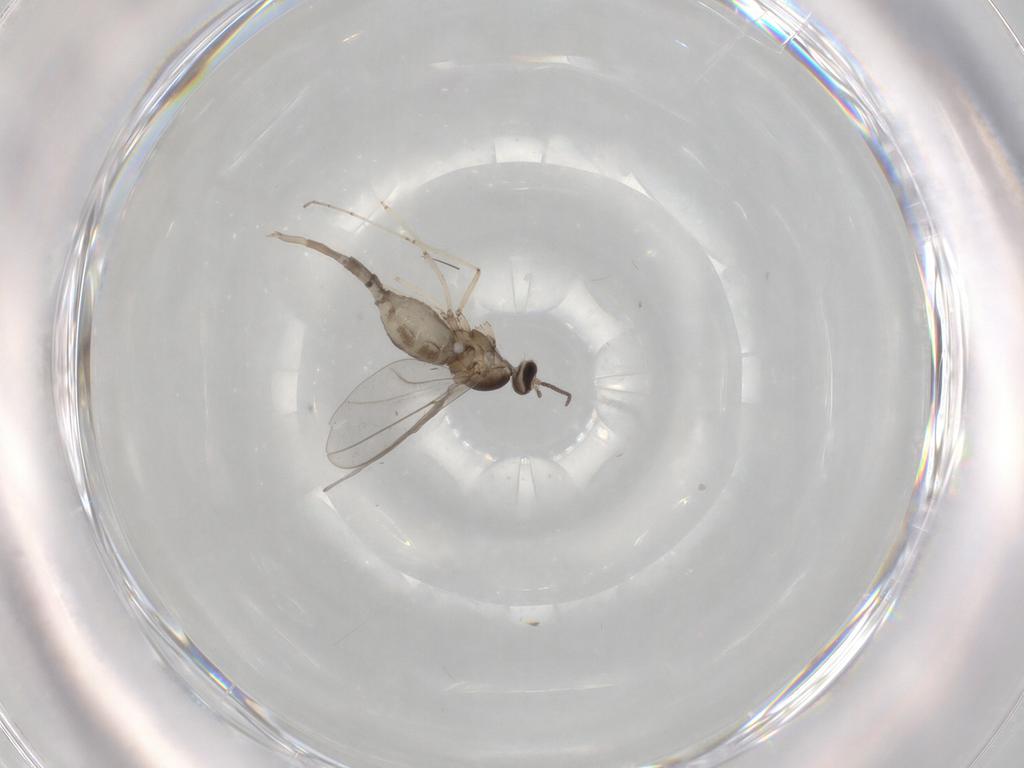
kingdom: Animalia
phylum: Arthropoda
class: Insecta
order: Diptera
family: Cecidomyiidae
